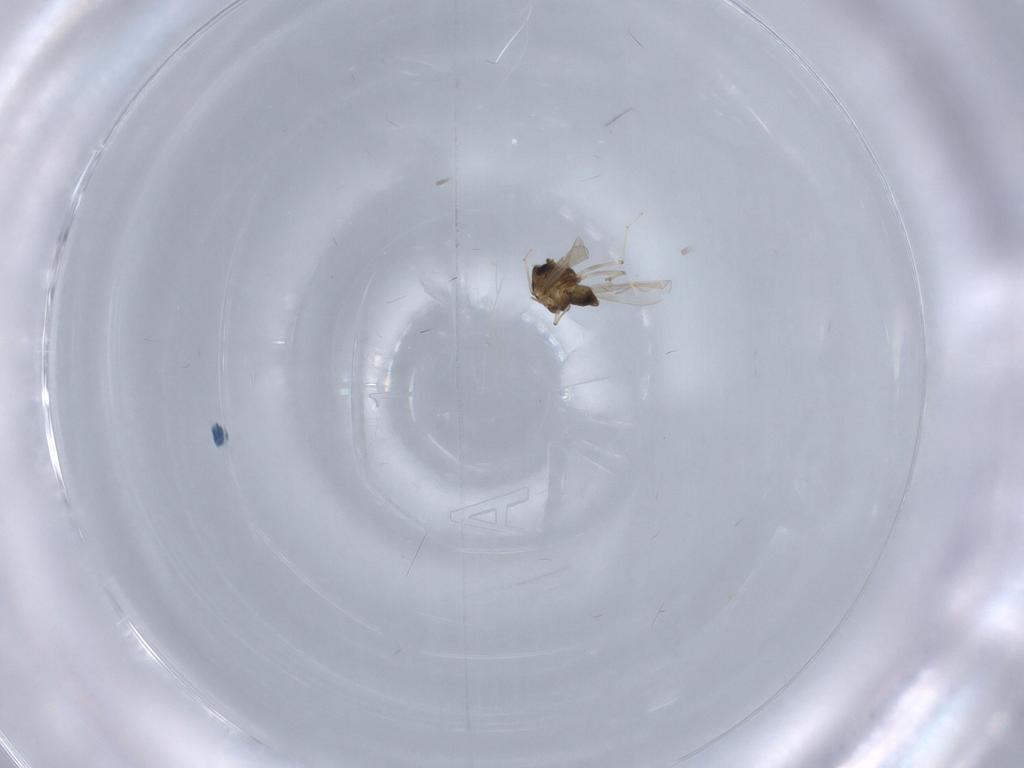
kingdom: Animalia
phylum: Arthropoda
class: Insecta
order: Diptera
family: Chironomidae
